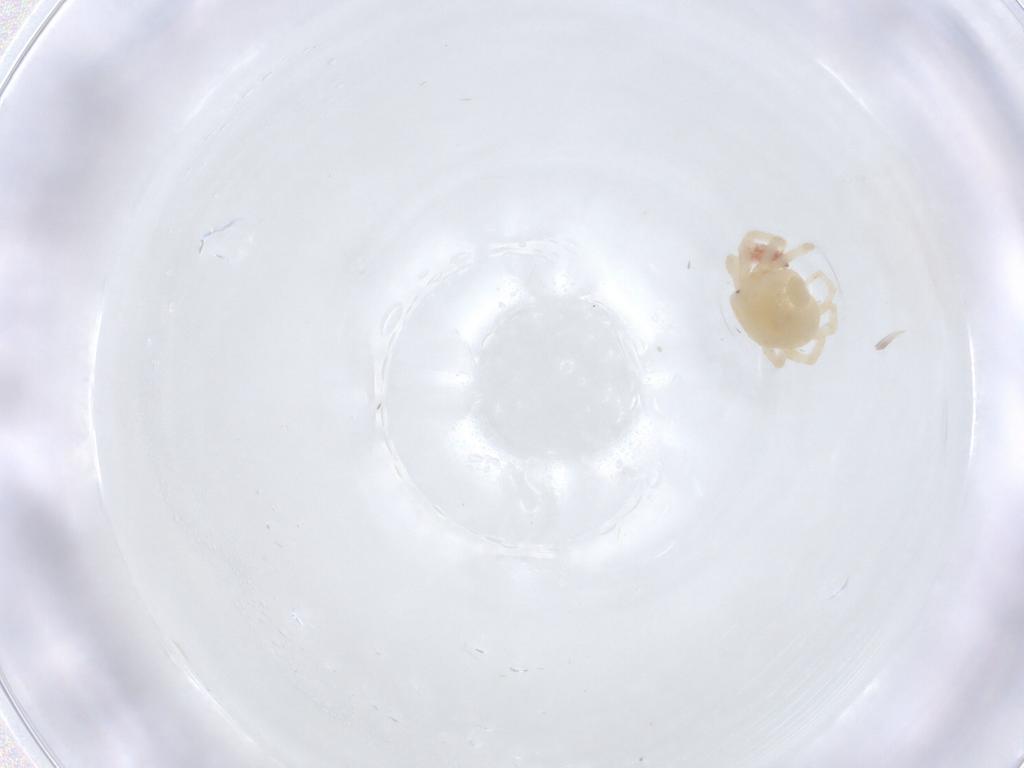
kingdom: Animalia
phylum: Arthropoda
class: Arachnida
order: Trombidiformes
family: Anystidae
